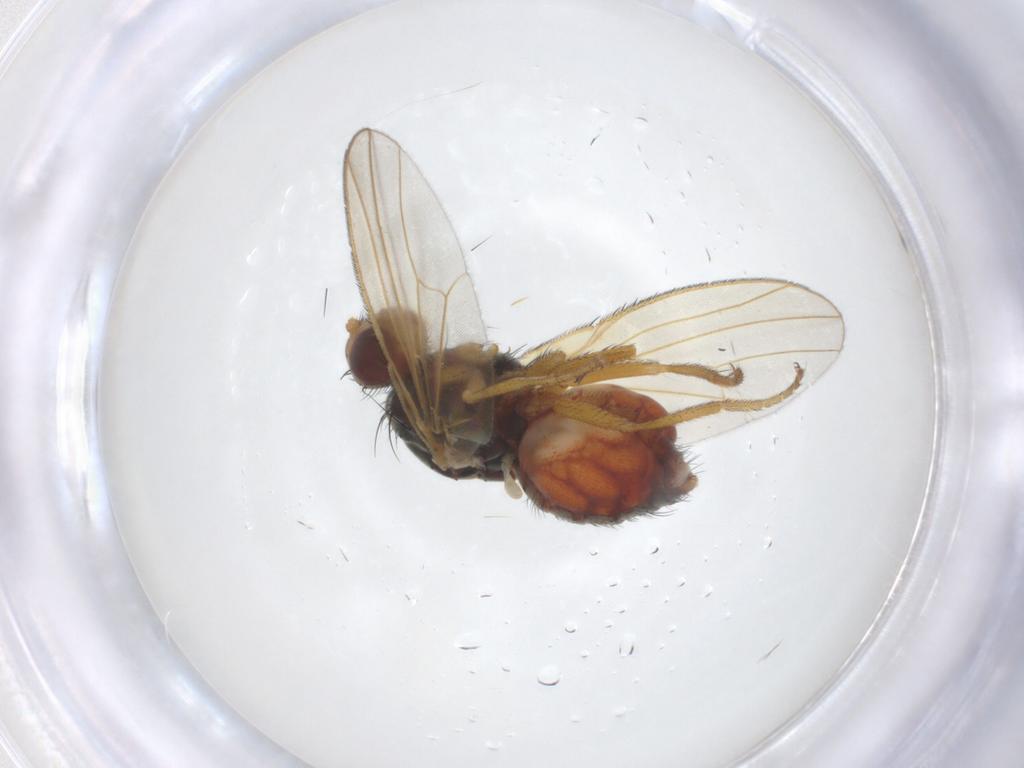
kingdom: Animalia
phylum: Arthropoda
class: Insecta
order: Diptera
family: Heleomyzidae
